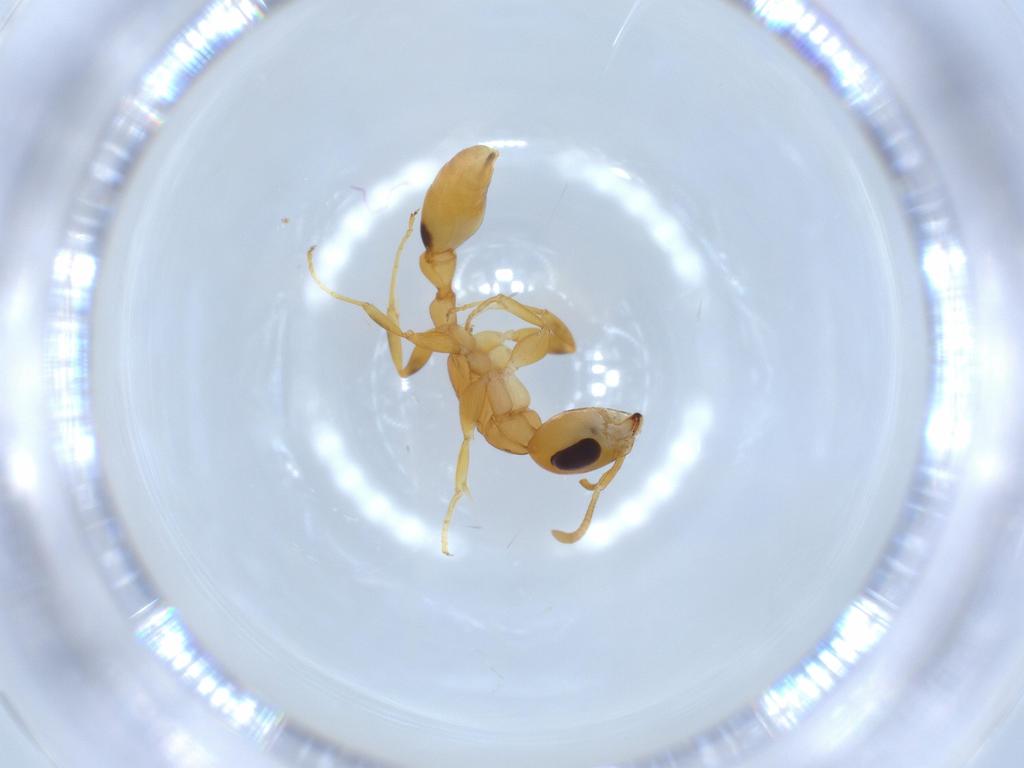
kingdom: Animalia
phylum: Arthropoda
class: Insecta
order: Hymenoptera
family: Formicidae
